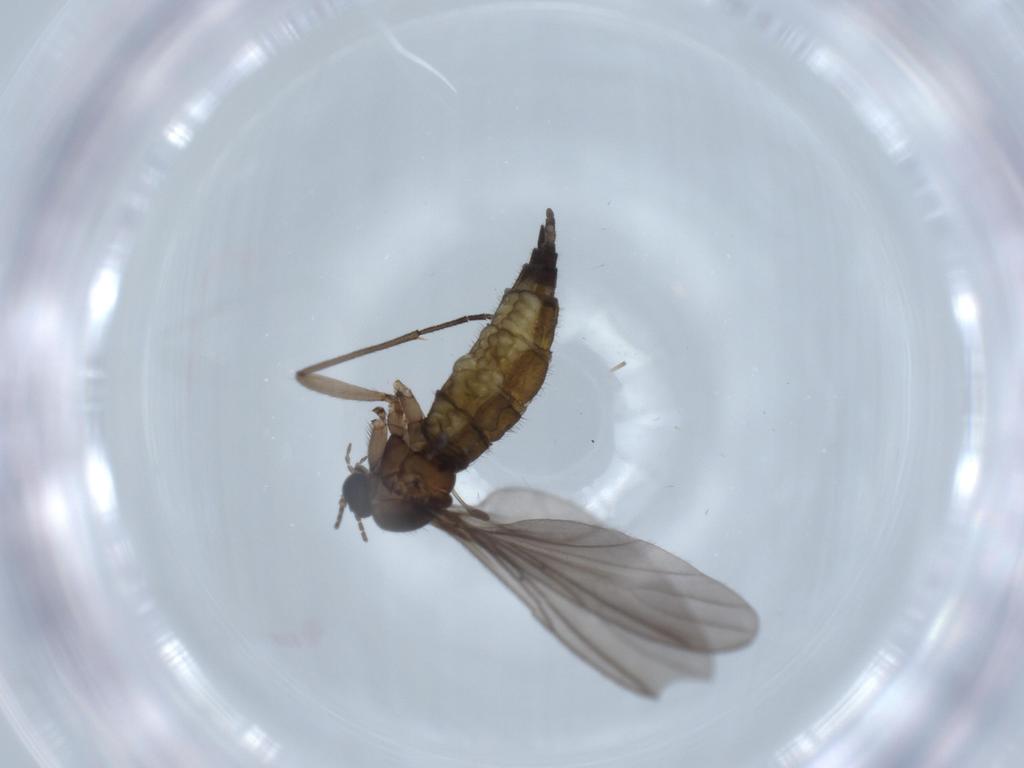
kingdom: Animalia
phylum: Arthropoda
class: Insecta
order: Diptera
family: Sciaridae
